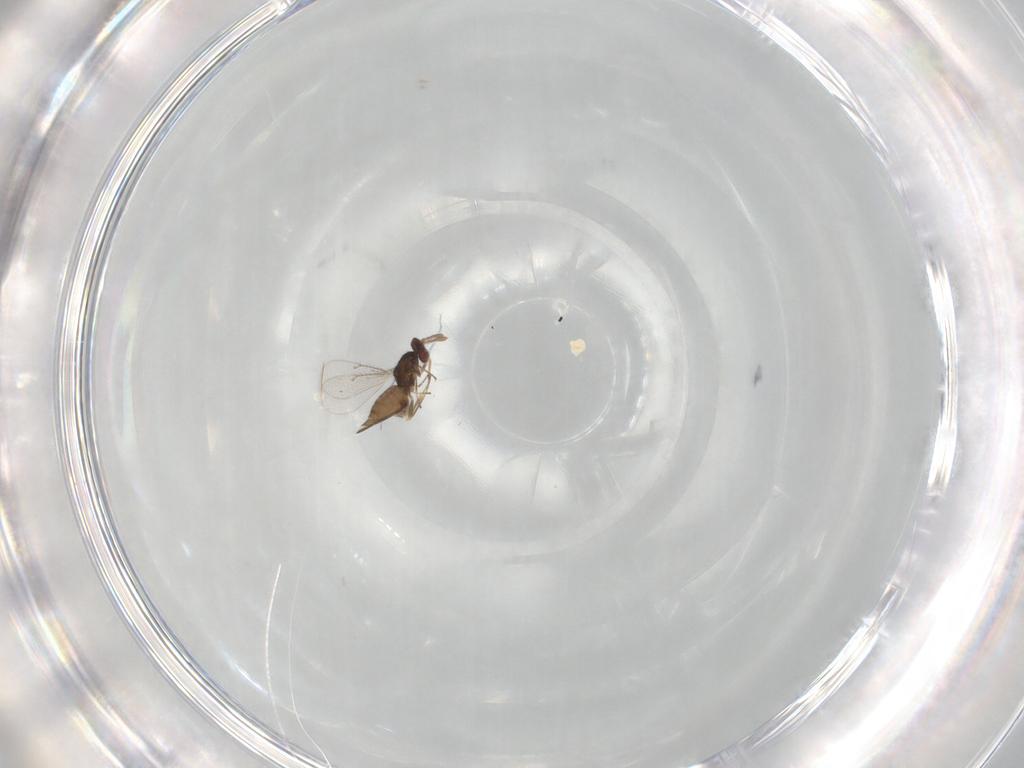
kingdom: Animalia
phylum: Arthropoda
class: Insecta
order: Hymenoptera
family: Eulophidae
